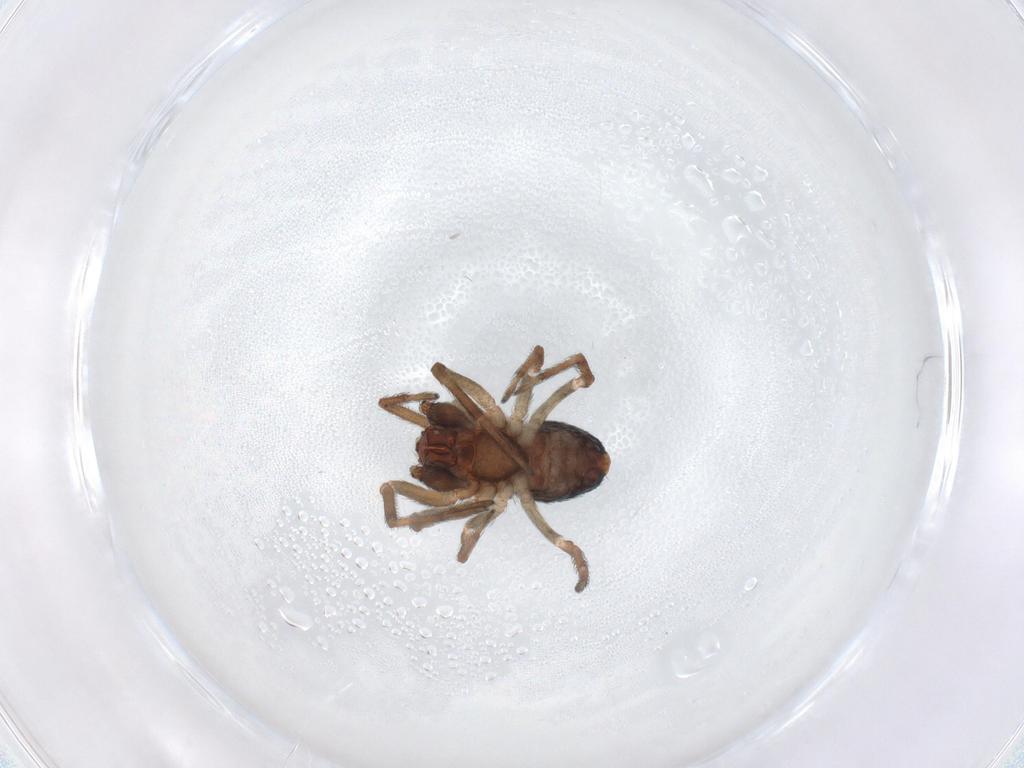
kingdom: Animalia
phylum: Arthropoda
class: Arachnida
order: Araneae
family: Dictynidae
